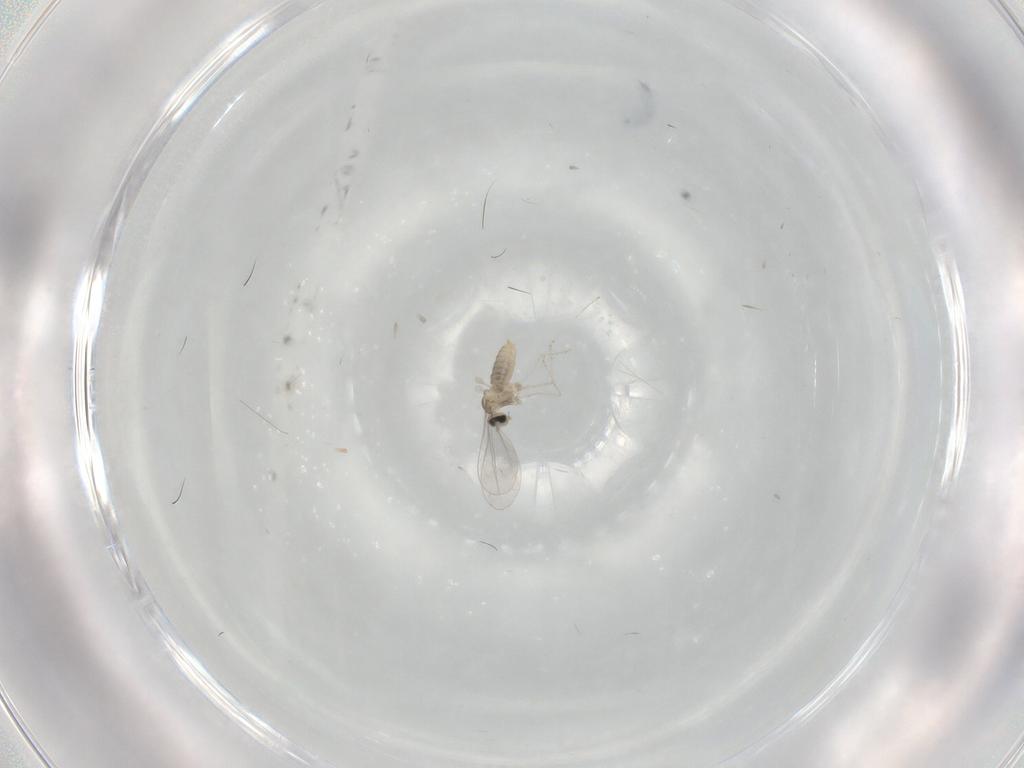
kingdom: Animalia
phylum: Arthropoda
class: Insecta
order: Diptera
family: Cecidomyiidae
